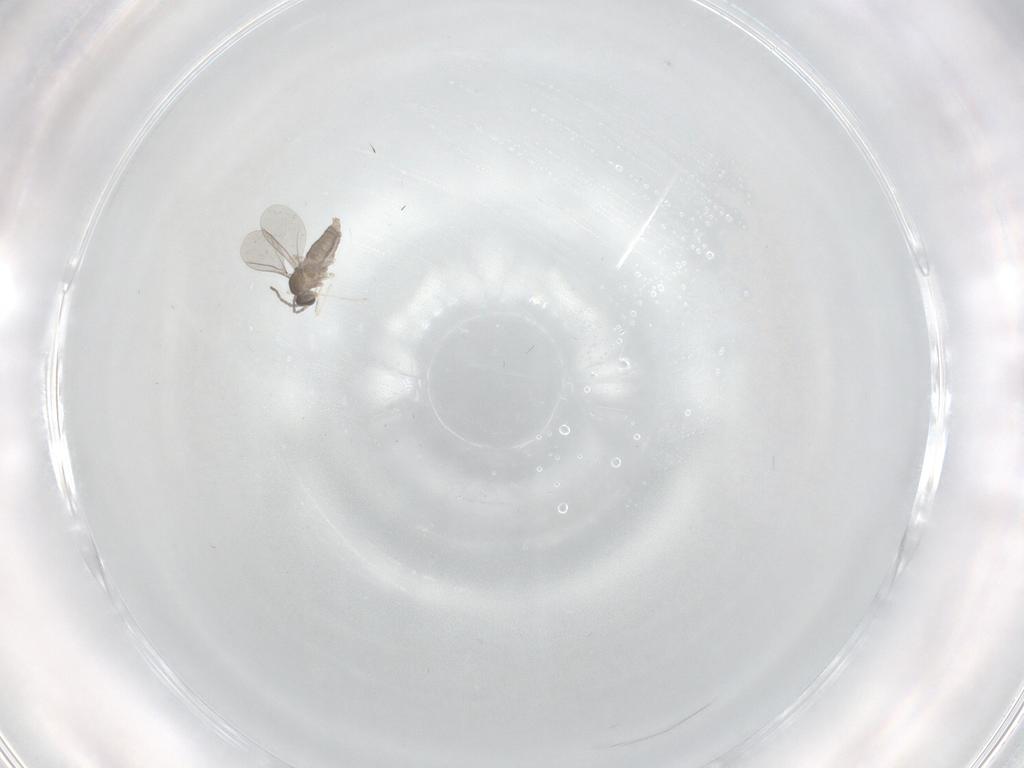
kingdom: Animalia
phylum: Arthropoda
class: Insecta
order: Diptera
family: Cecidomyiidae
